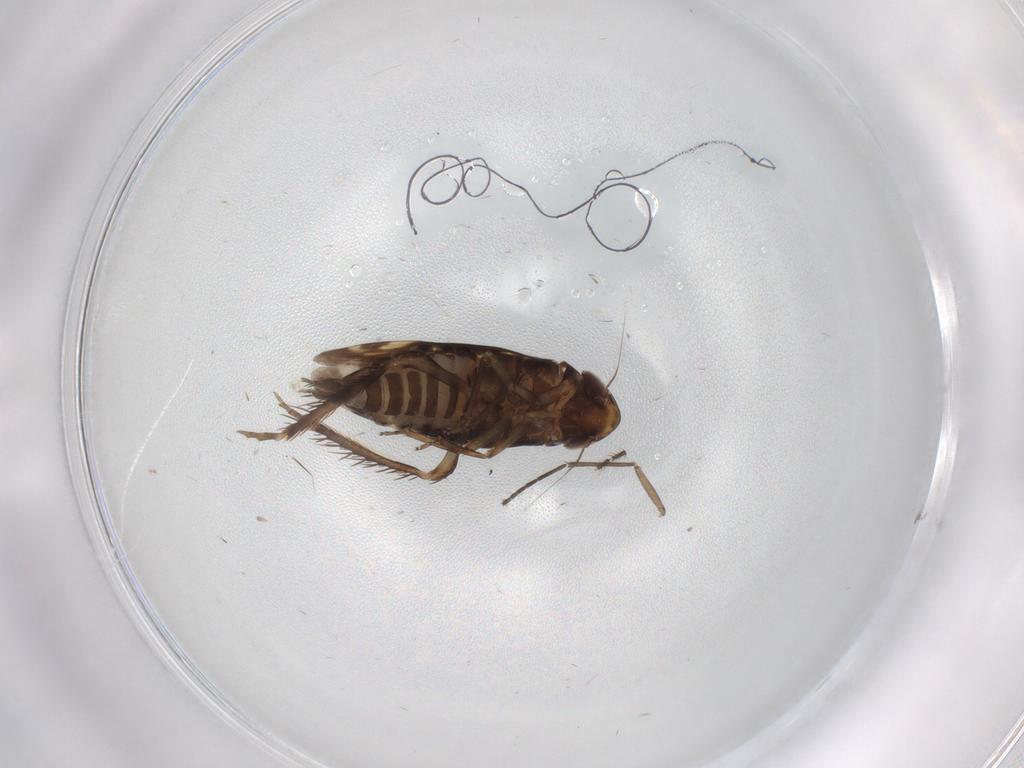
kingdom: Animalia
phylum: Arthropoda
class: Insecta
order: Hemiptera
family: Cicadellidae
